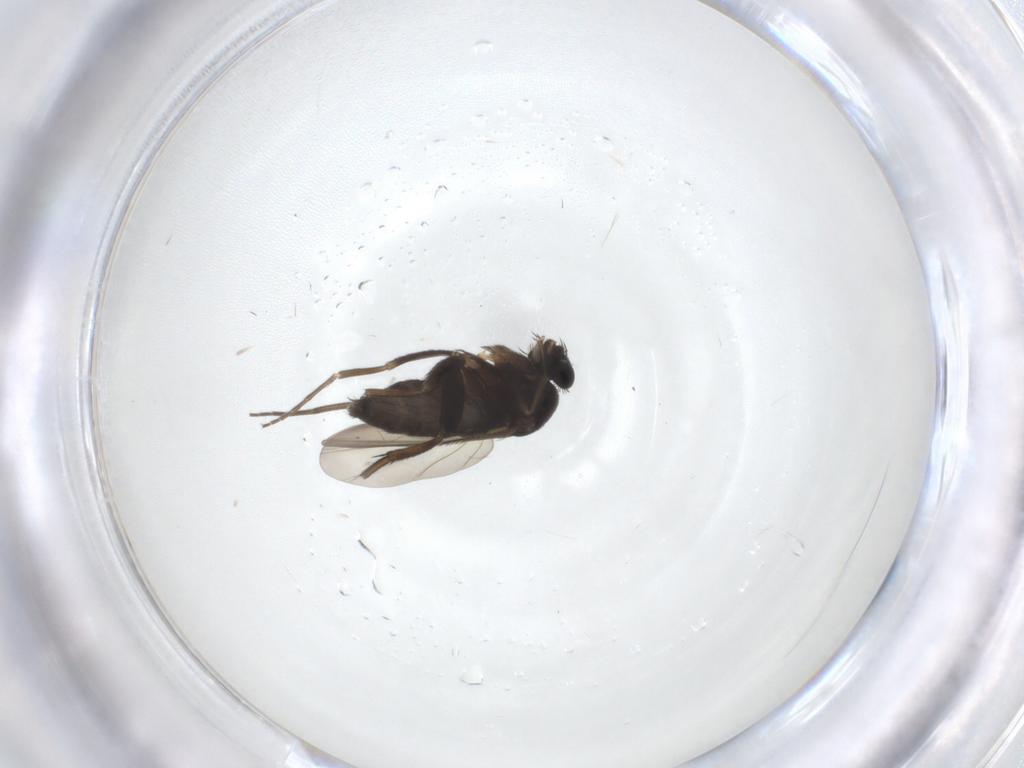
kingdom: Animalia
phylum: Arthropoda
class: Insecta
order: Diptera
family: Phoridae
